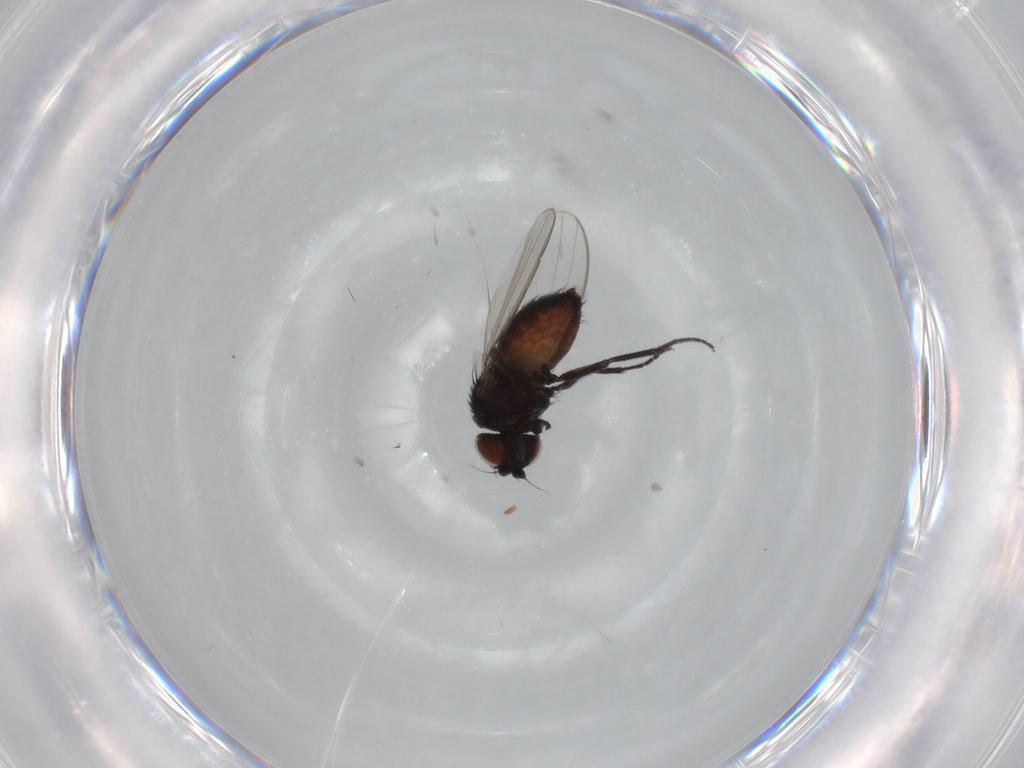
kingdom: Animalia
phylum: Arthropoda
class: Insecta
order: Diptera
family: Milichiidae
